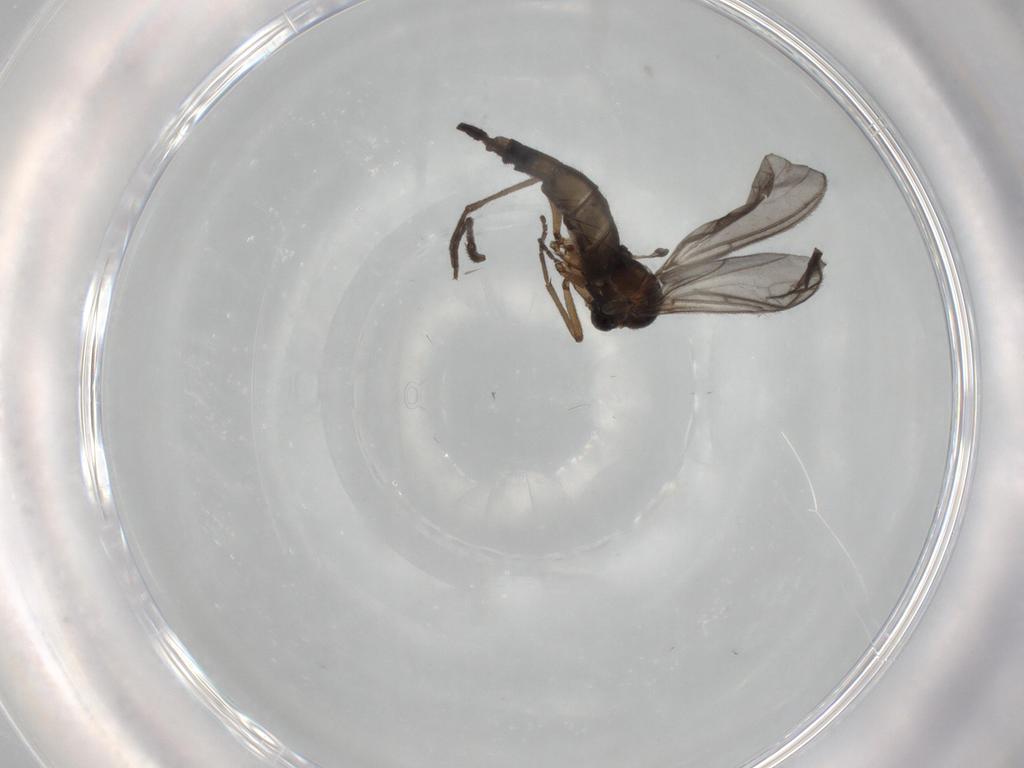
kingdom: Animalia
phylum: Arthropoda
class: Insecta
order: Diptera
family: Sciaridae
